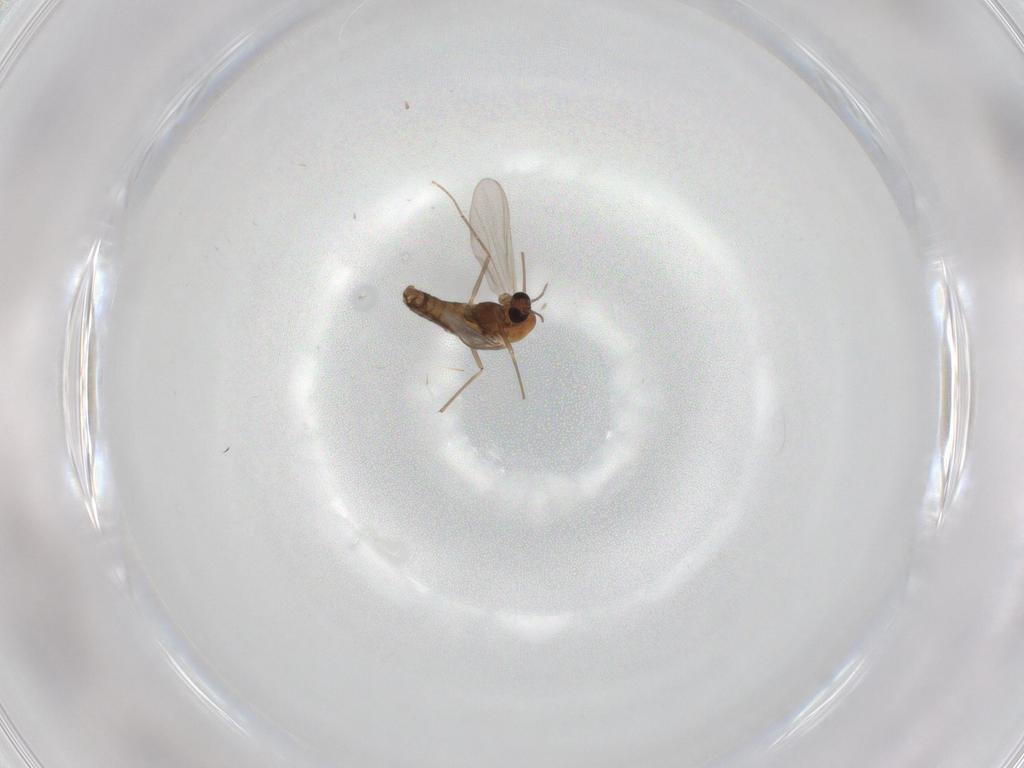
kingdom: Animalia
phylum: Arthropoda
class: Insecta
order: Diptera
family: Chironomidae
